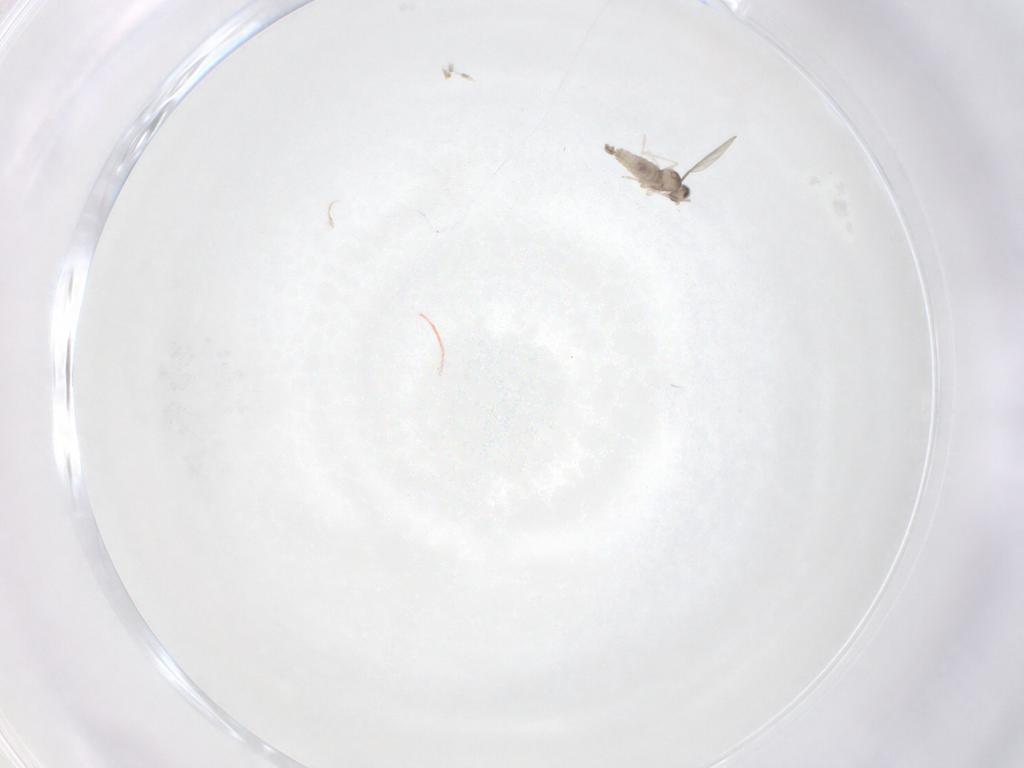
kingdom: Animalia
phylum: Arthropoda
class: Insecta
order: Diptera
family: Cecidomyiidae
